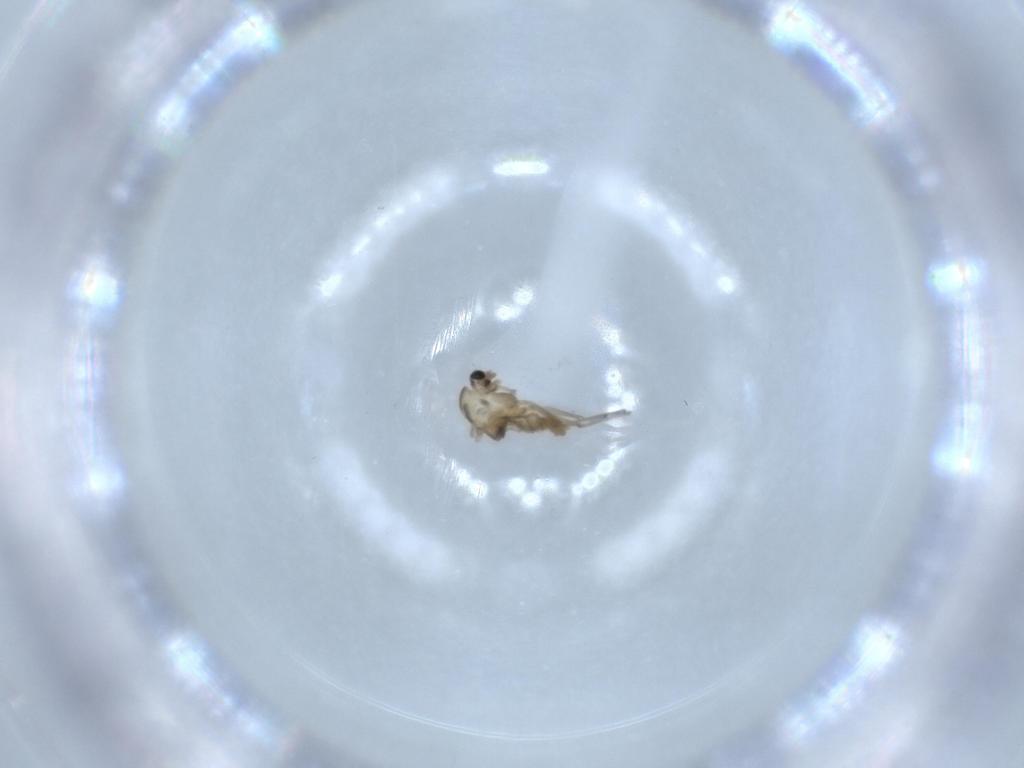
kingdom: Animalia
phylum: Arthropoda
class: Insecta
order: Diptera
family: Chironomidae
